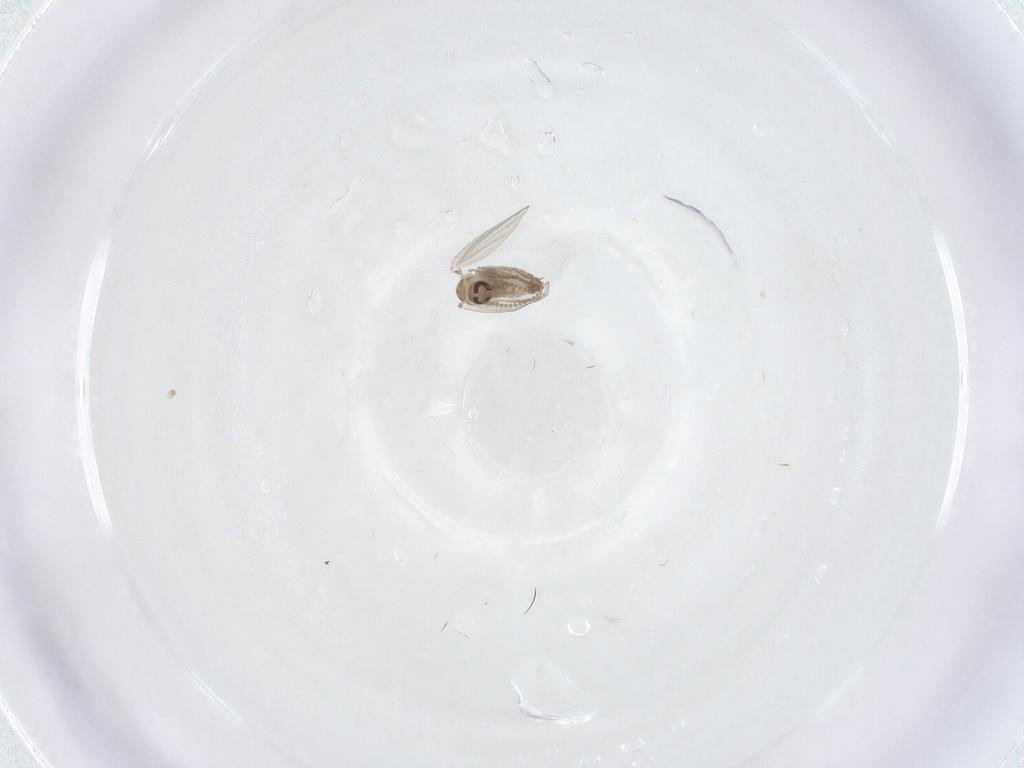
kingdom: Animalia
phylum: Arthropoda
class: Insecta
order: Diptera
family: Psychodidae
